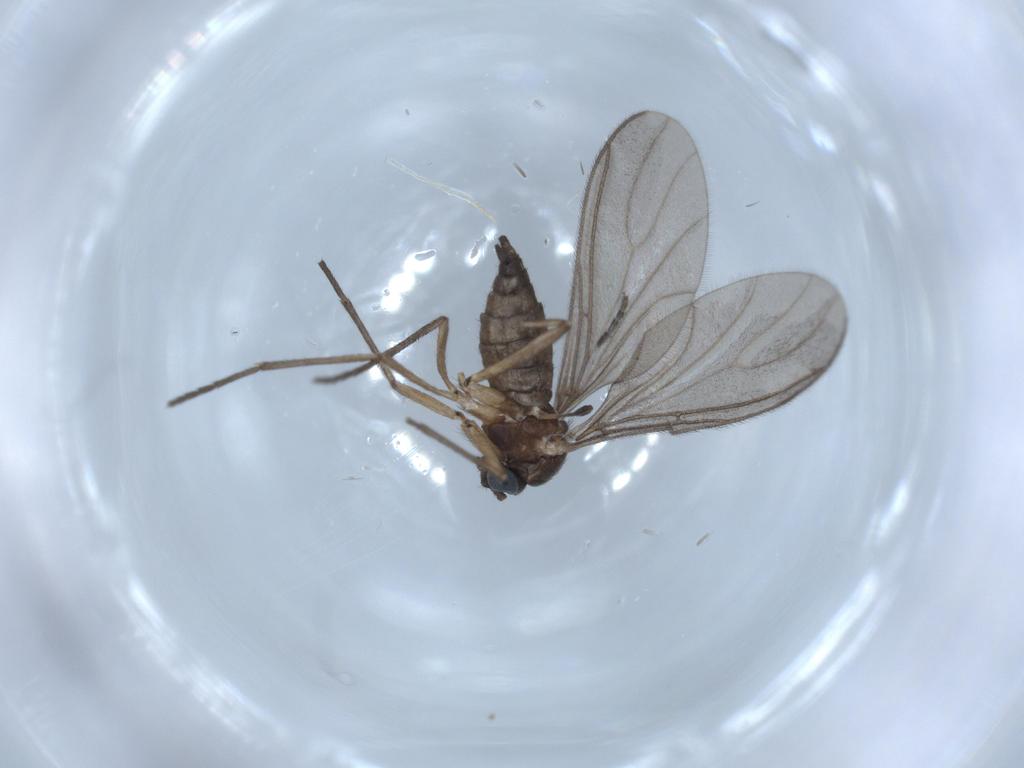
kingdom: Animalia
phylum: Arthropoda
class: Insecta
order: Diptera
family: Sciaridae
